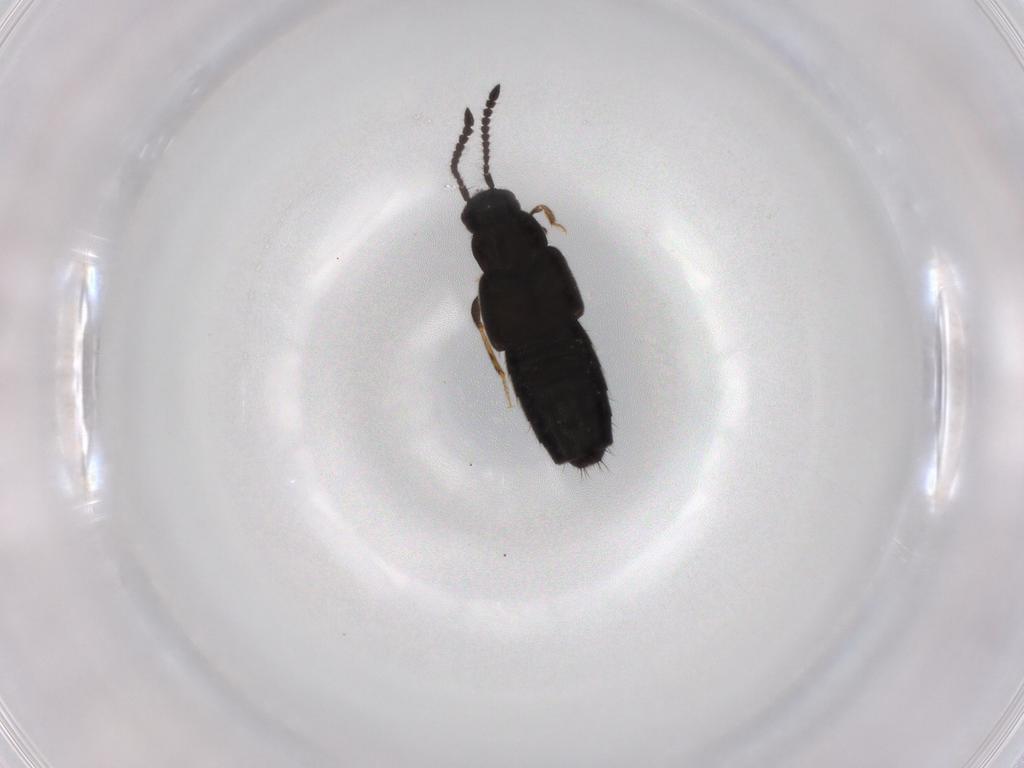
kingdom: Animalia
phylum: Arthropoda
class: Insecta
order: Coleoptera
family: Staphylinidae
